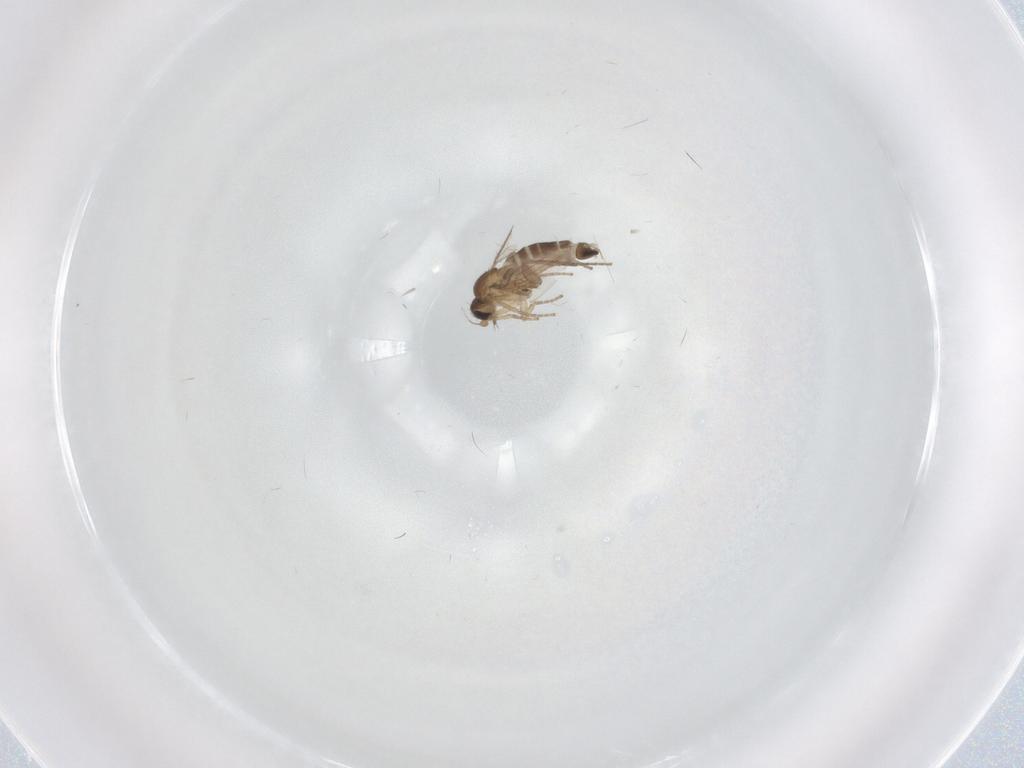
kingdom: Animalia
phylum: Arthropoda
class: Insecta
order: Diptera
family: Phoridae
